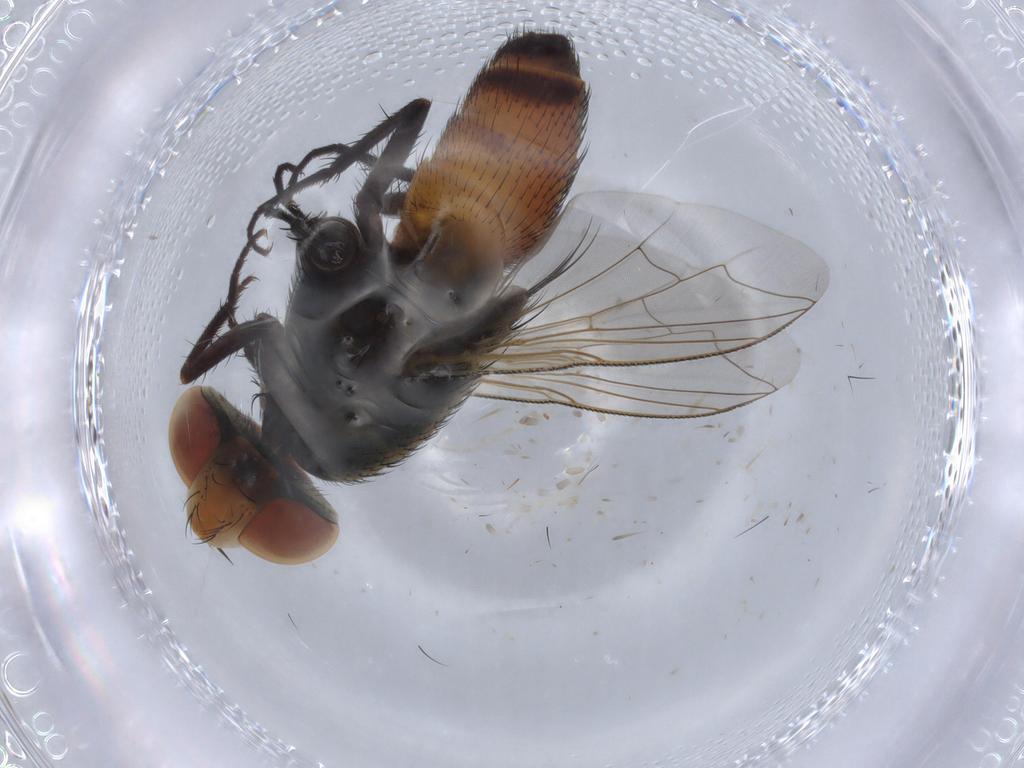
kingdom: Animalia
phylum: Arthropoda
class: Insecta
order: Diptera
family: Sarcophagidae
